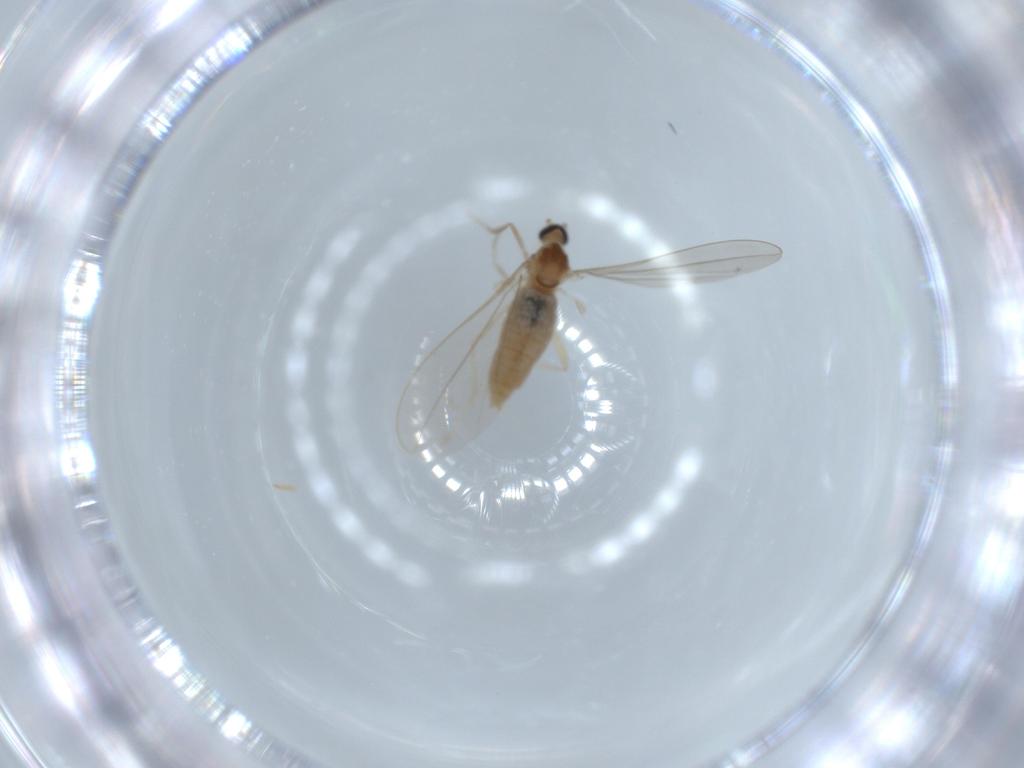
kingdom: Animalia
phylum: Arthropoda
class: Insecta
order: Diptera
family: Cecidomyiidae
